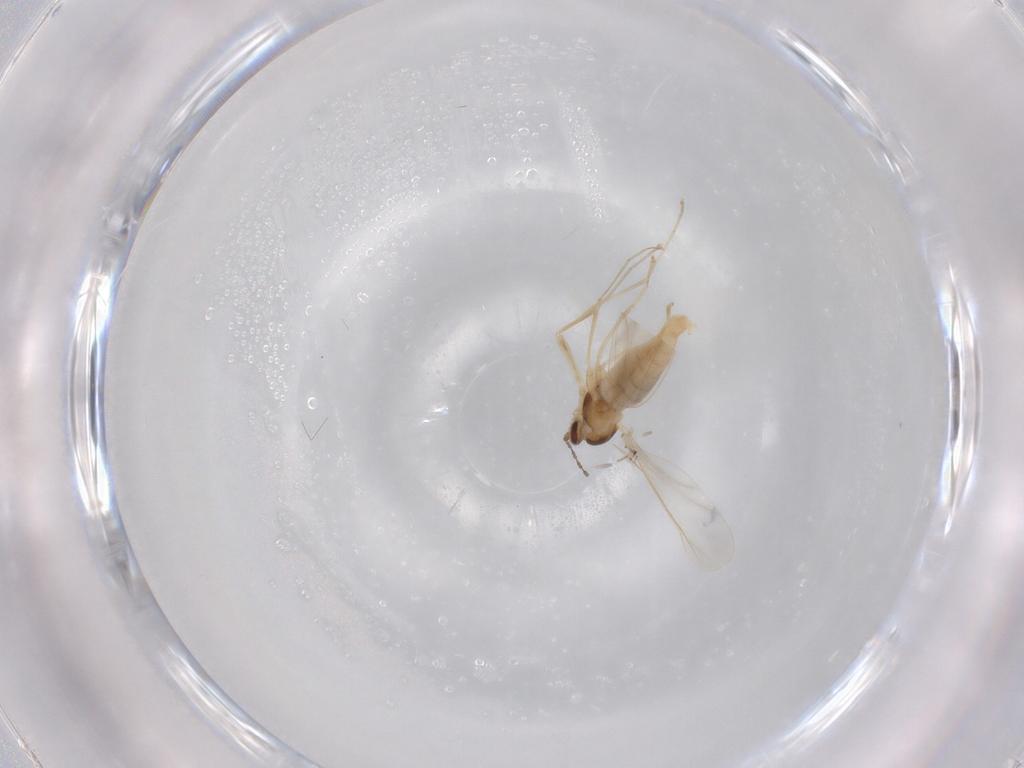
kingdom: Animalia
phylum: Arthropoda
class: Insecta
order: Diptera
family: Cecidomyiidae
